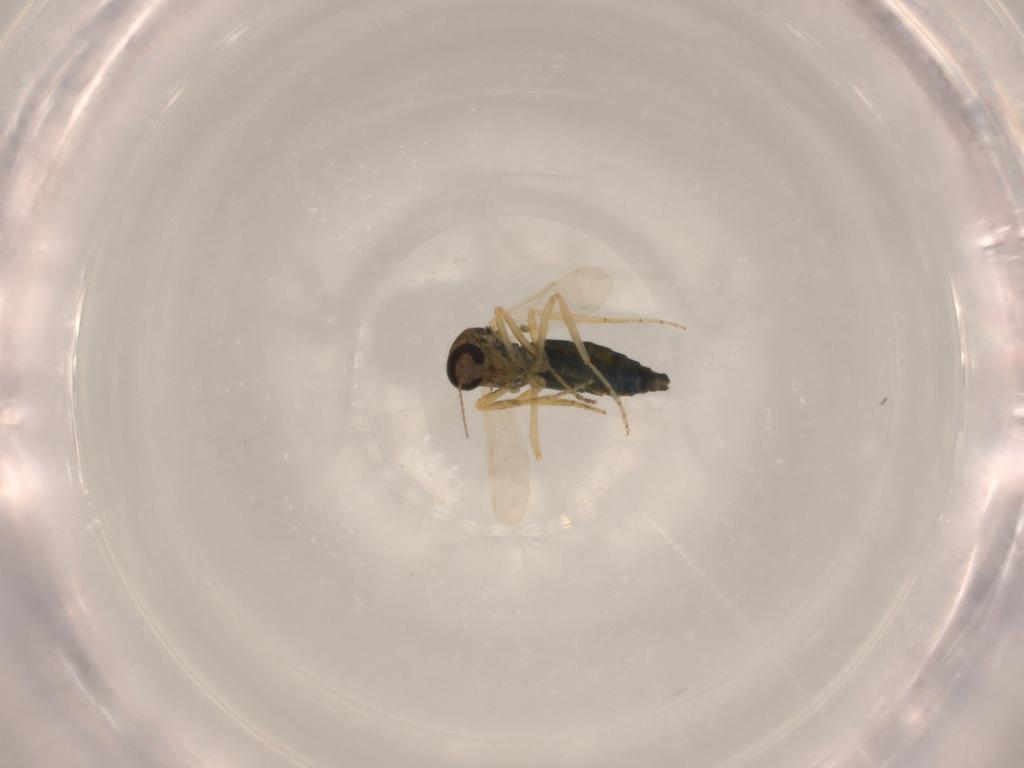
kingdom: Animalia
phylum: Arthropoda
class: Insecta
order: Diptera
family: Ceratopogonidae
